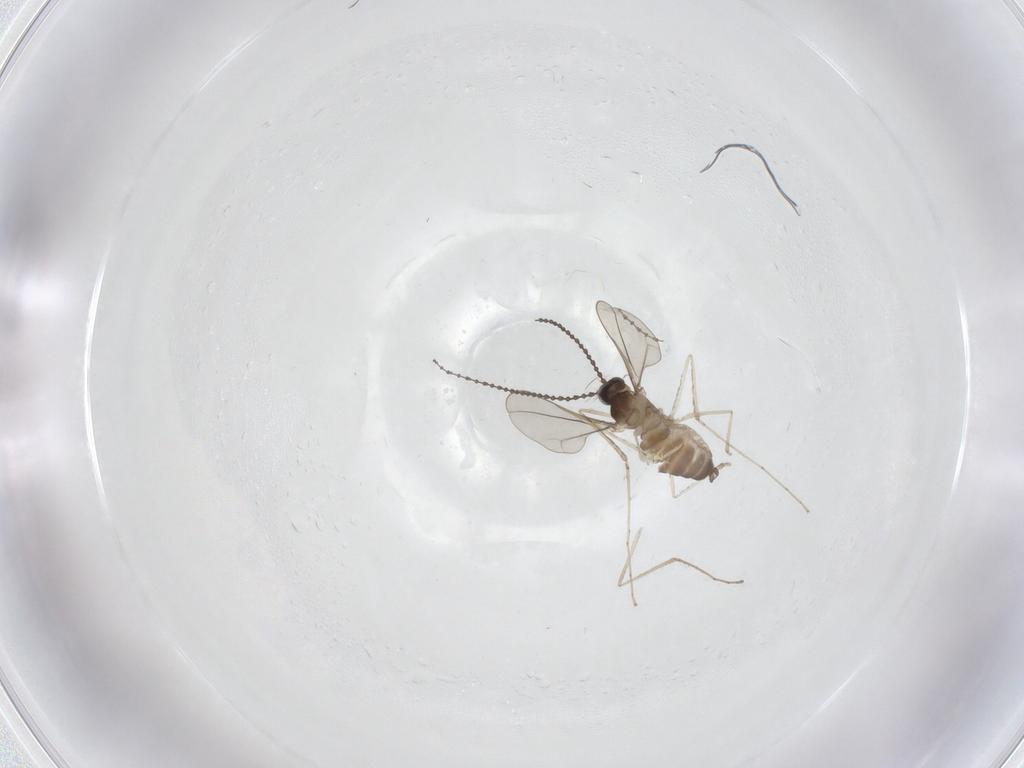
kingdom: Animalia
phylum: Arthropoda
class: Insecta
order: Diptera
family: Cecidomyiidae
